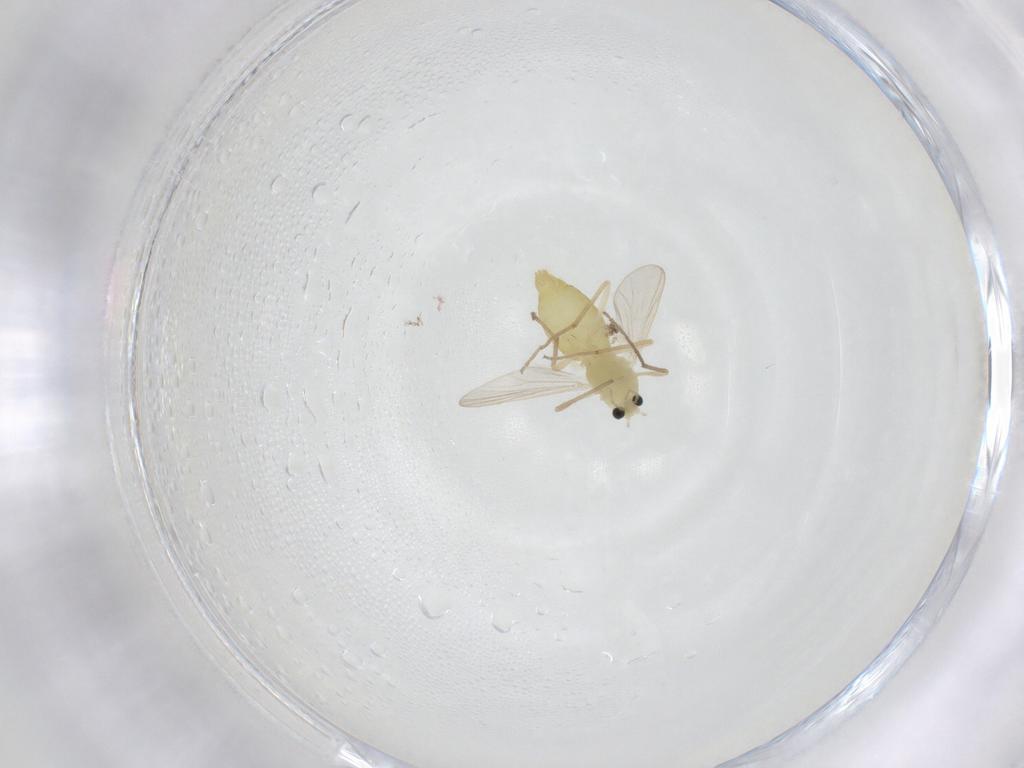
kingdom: Animalia
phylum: Arthropoda
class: Insecta
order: Diptera
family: Chironomidae
